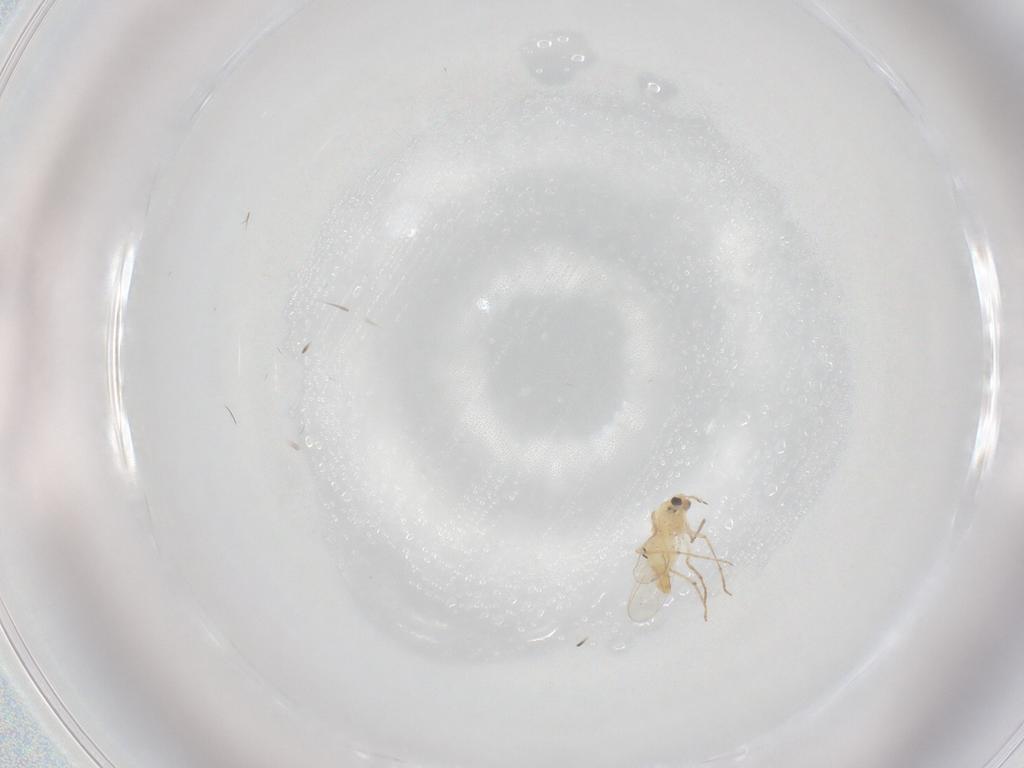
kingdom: Animalia
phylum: Arthropoda
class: Insecta
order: Diptera
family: Chironomidae
